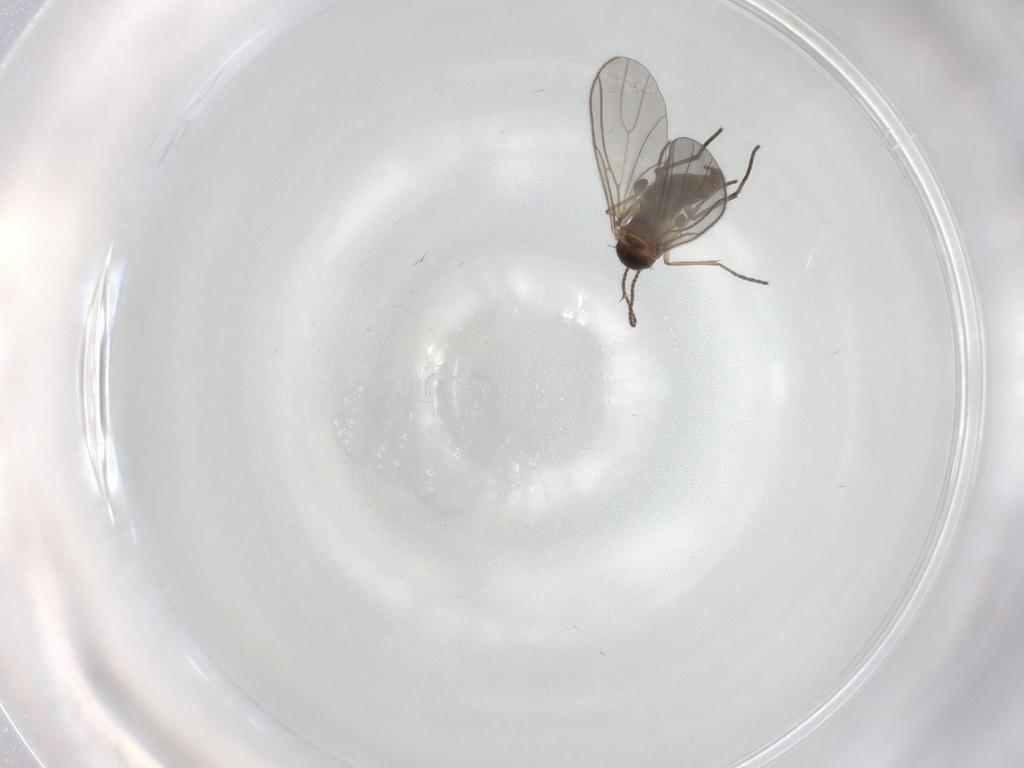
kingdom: Animalia
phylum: Arthropoda
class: Insecta
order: Diptera
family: Sciaridae
